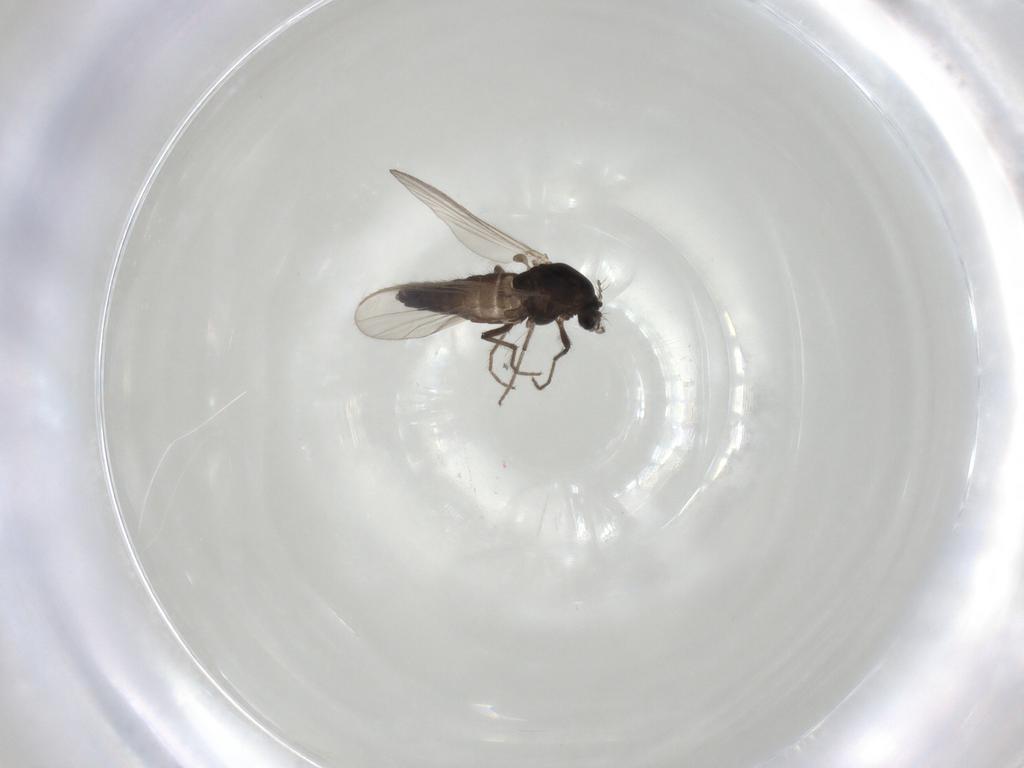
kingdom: Animalia
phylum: Arthropoda
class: Insecta
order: Diptera
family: Chironomidae
